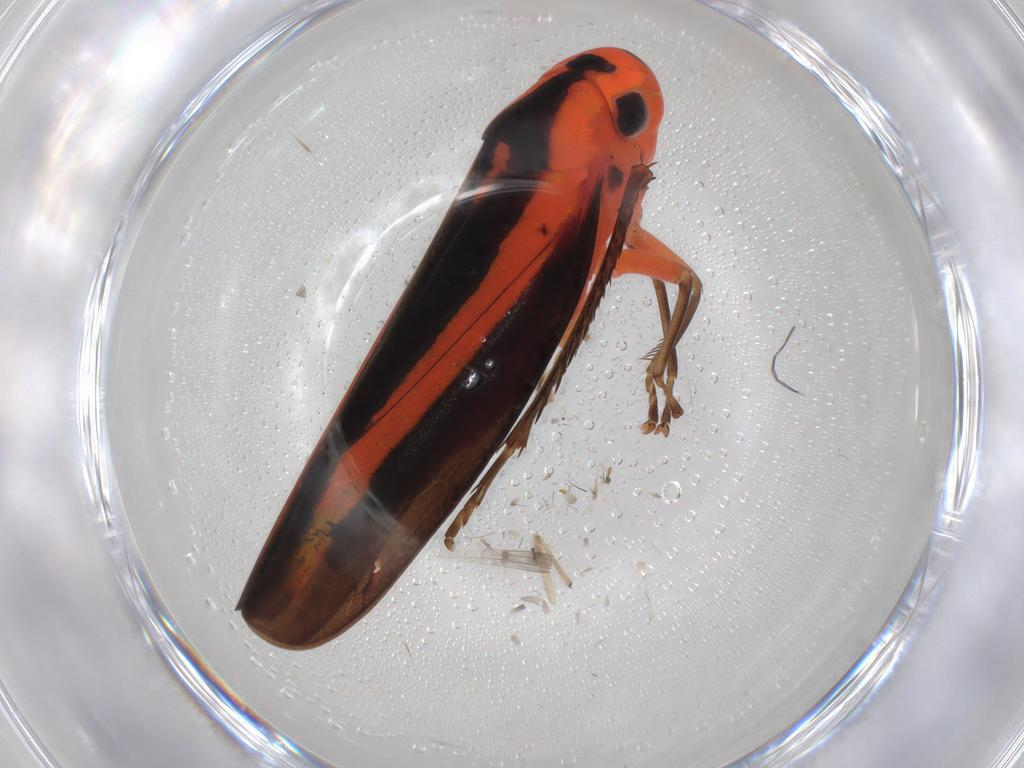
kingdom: Animalia
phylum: Arthropoda
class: Insecta
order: Hemiptera
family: Cicadellidae
